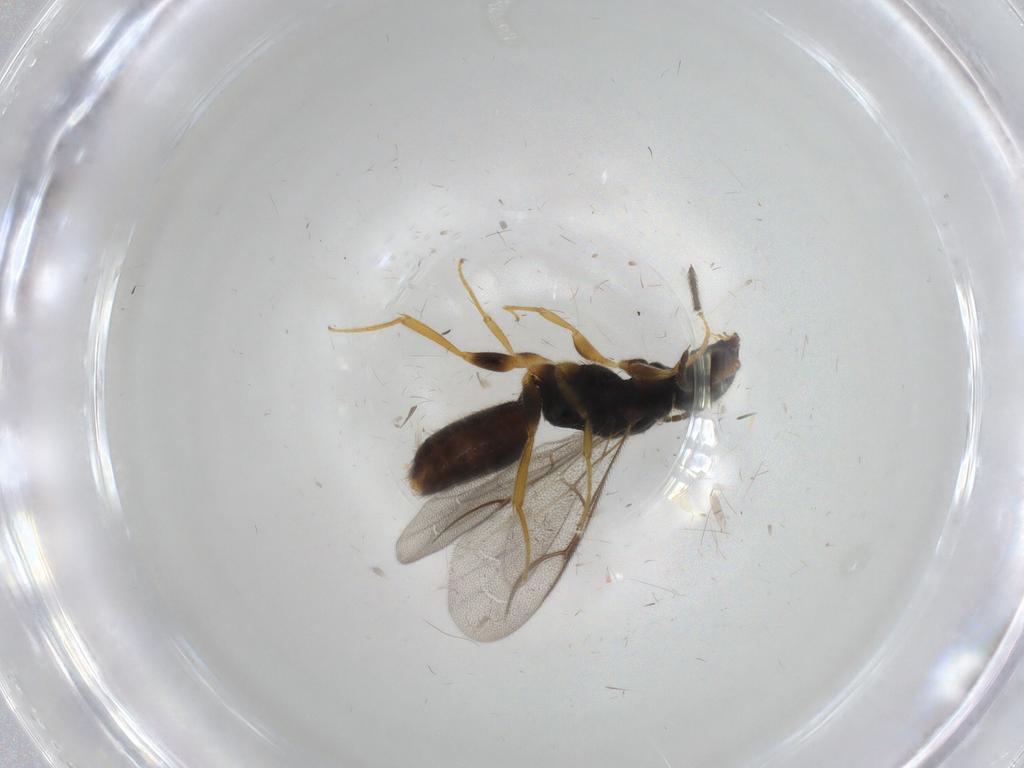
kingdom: Animalia
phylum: Arthropoda
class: Insecta
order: Hymenoptera
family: Bethylidae
